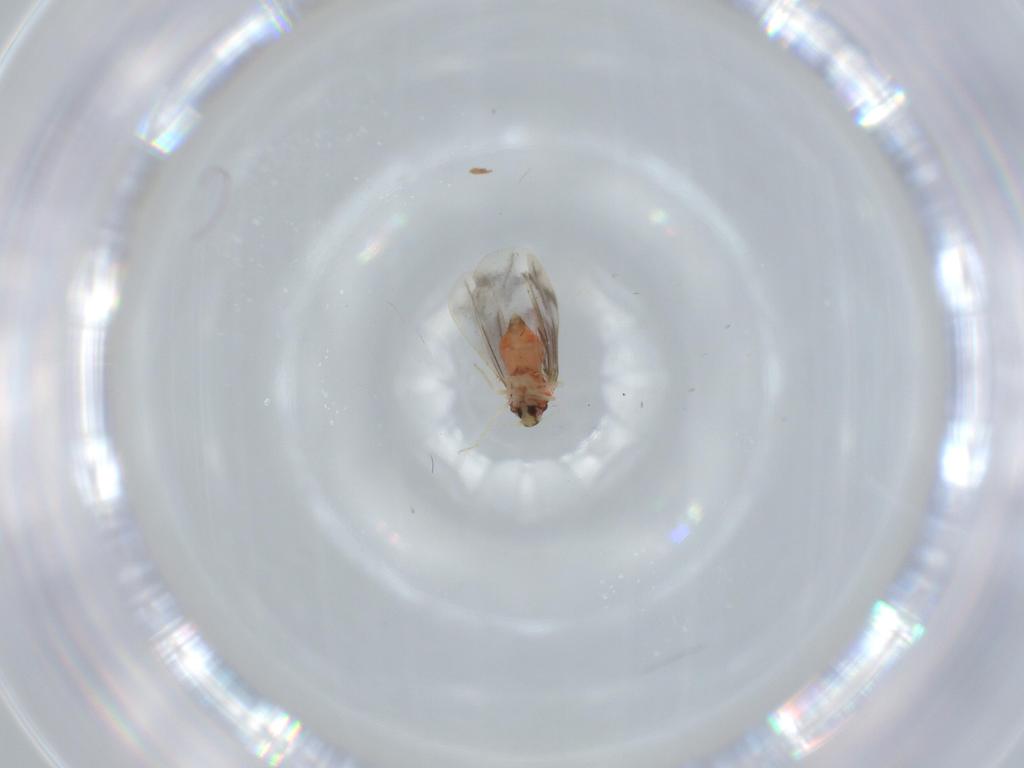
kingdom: Animalia
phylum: Arthropoda
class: Insecta
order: Hemiptera
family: Aleyrodidae
